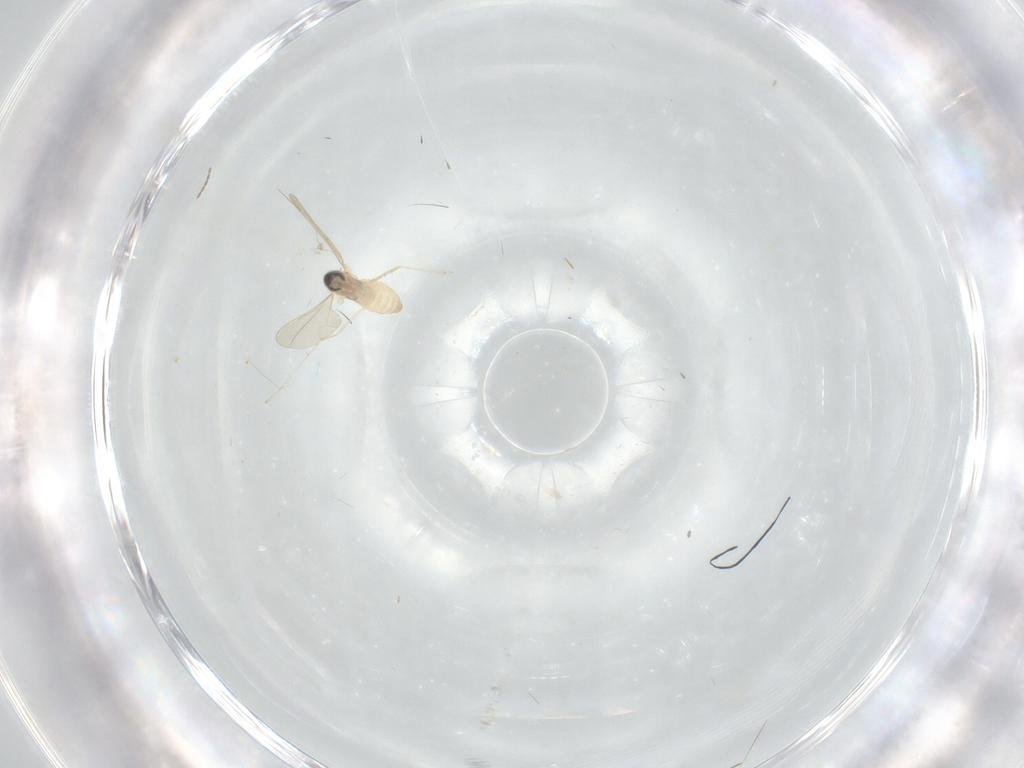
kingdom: Animalia
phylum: Arthropoda
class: Insecta
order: Diptera
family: Cecidomyiidae
